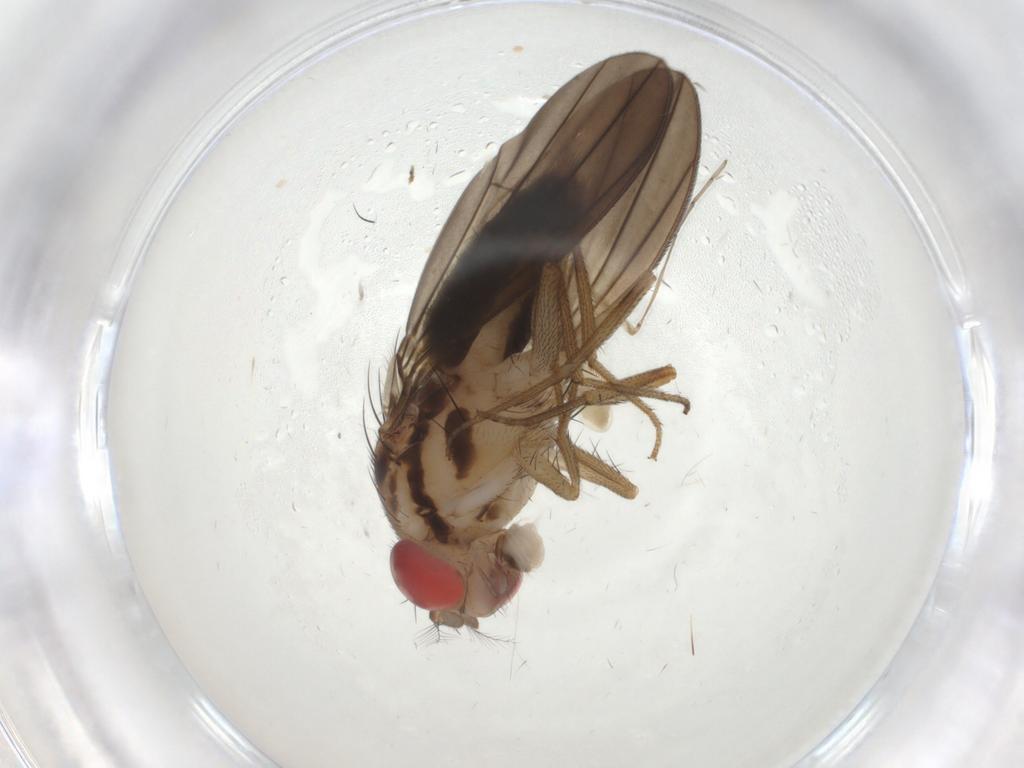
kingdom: Animalia
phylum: Arthropoda
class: Insecta
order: Diptera
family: Drosophilidae
